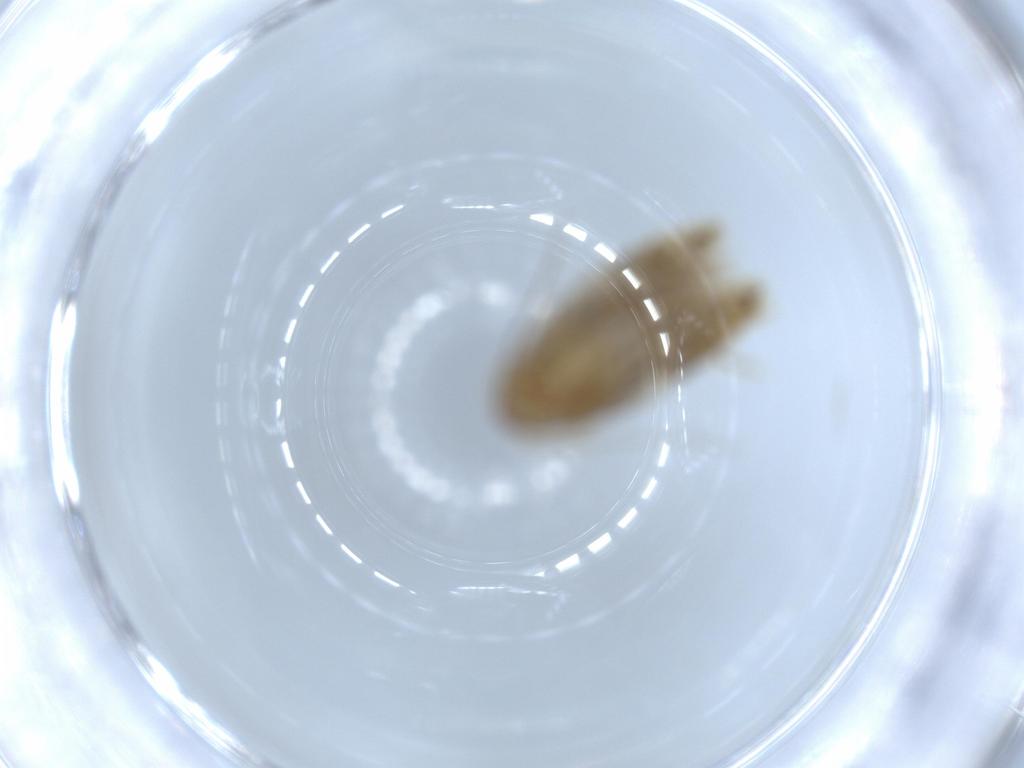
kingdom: Animalia
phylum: Arthropoda
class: Insecta
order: Lepidoptera
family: Tineidae
